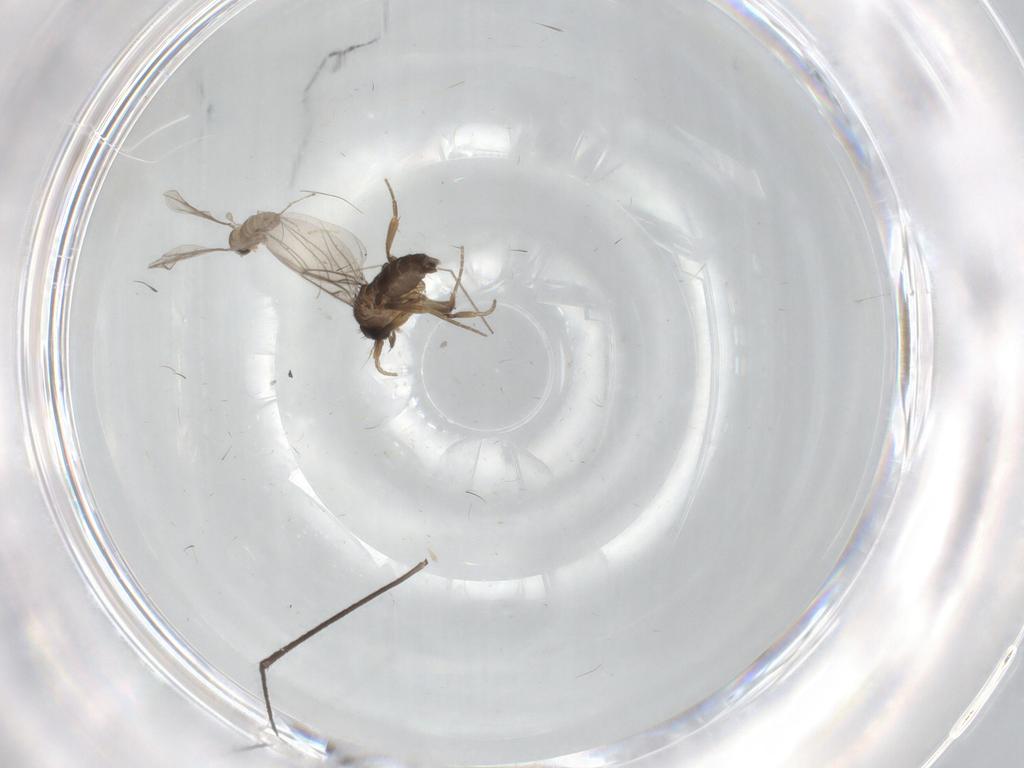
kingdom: Animalia
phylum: Arthropoda
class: Insecta
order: Diptera
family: Limoniidae
